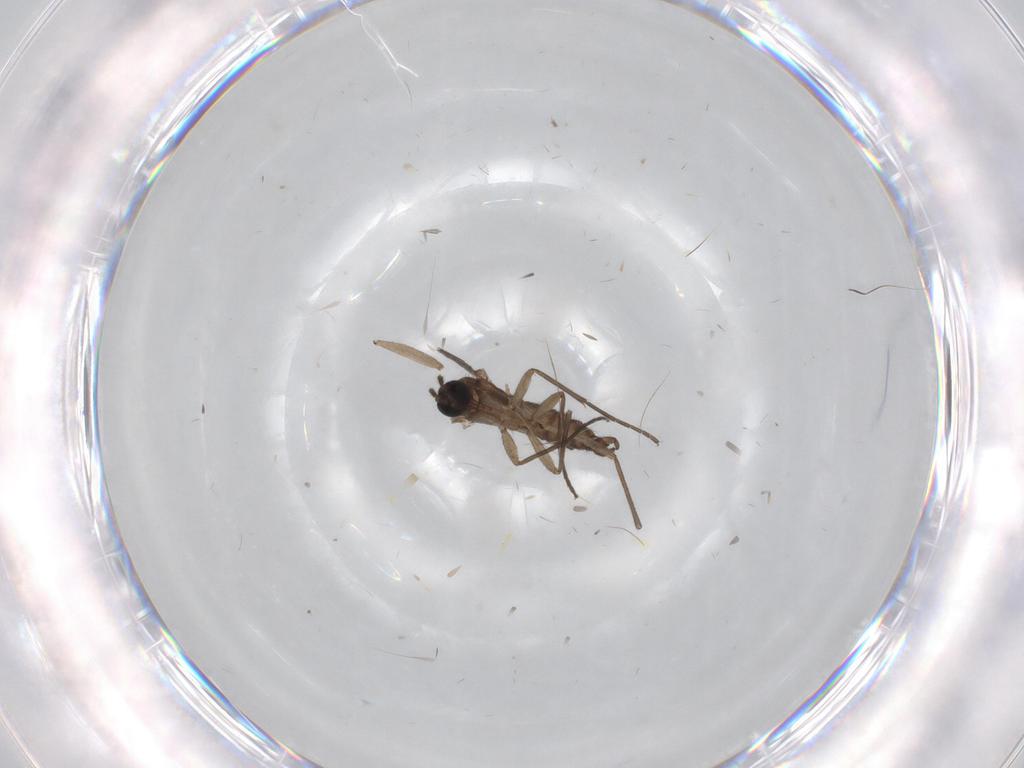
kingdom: Animalia
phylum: Arthropoda
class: Insecta
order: Diptera
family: Sciaridae
